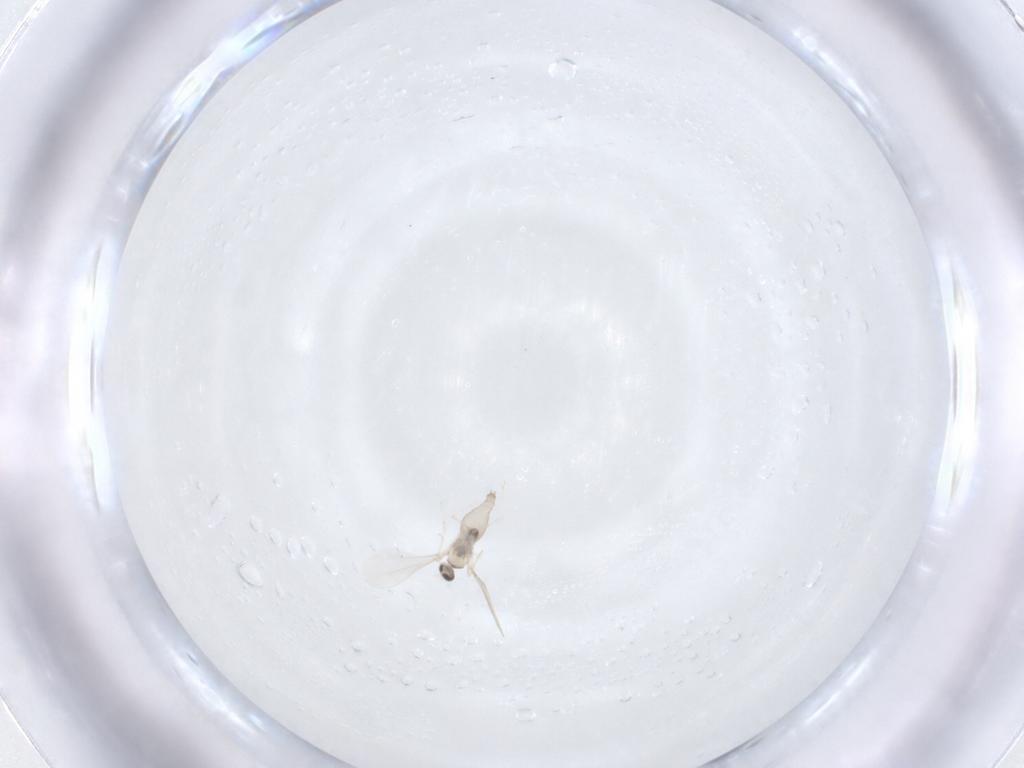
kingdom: Animalia
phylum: Arthropoda
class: Insecta
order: Diptera
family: Cecidomyiidae
